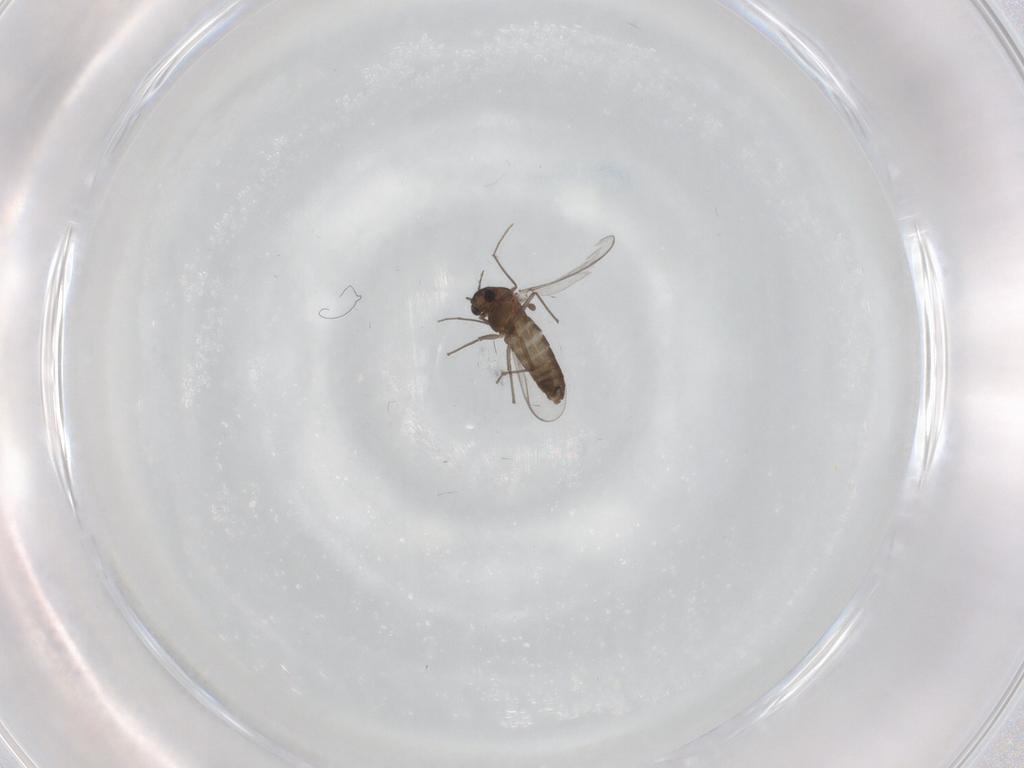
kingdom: Animalia
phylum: Arthropoda
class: Insecta
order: Diptera
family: Chironomidae
